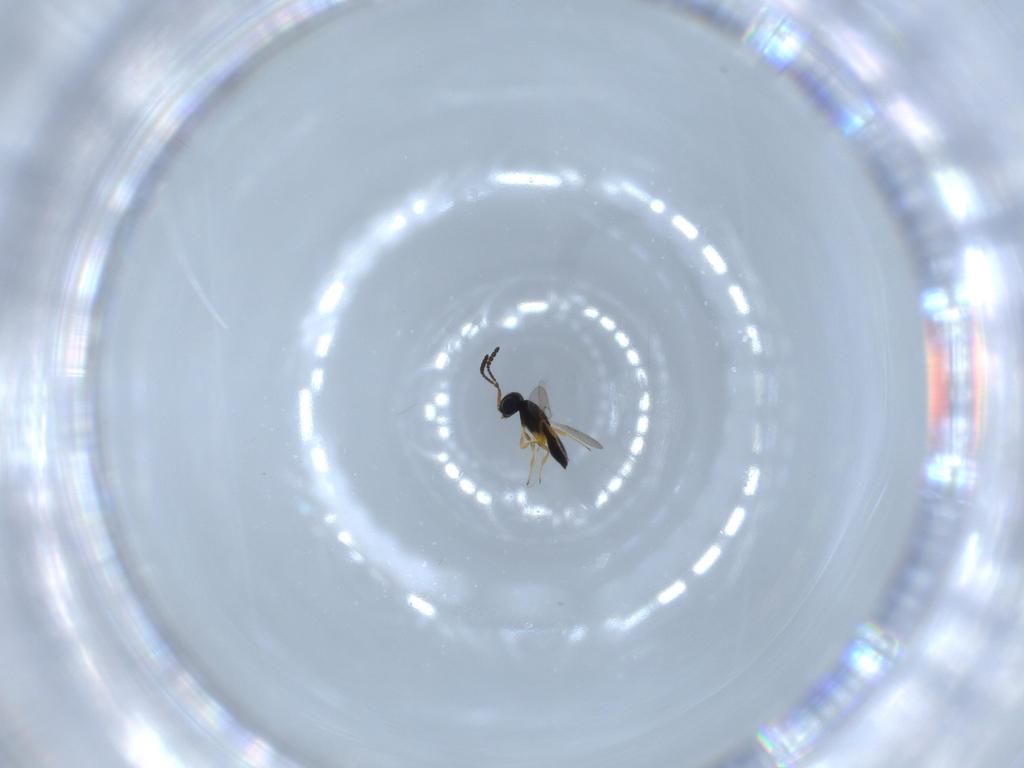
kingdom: Animalia
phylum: Arthropoda
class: Insecta
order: Hymenoptera
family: Scelionidae
